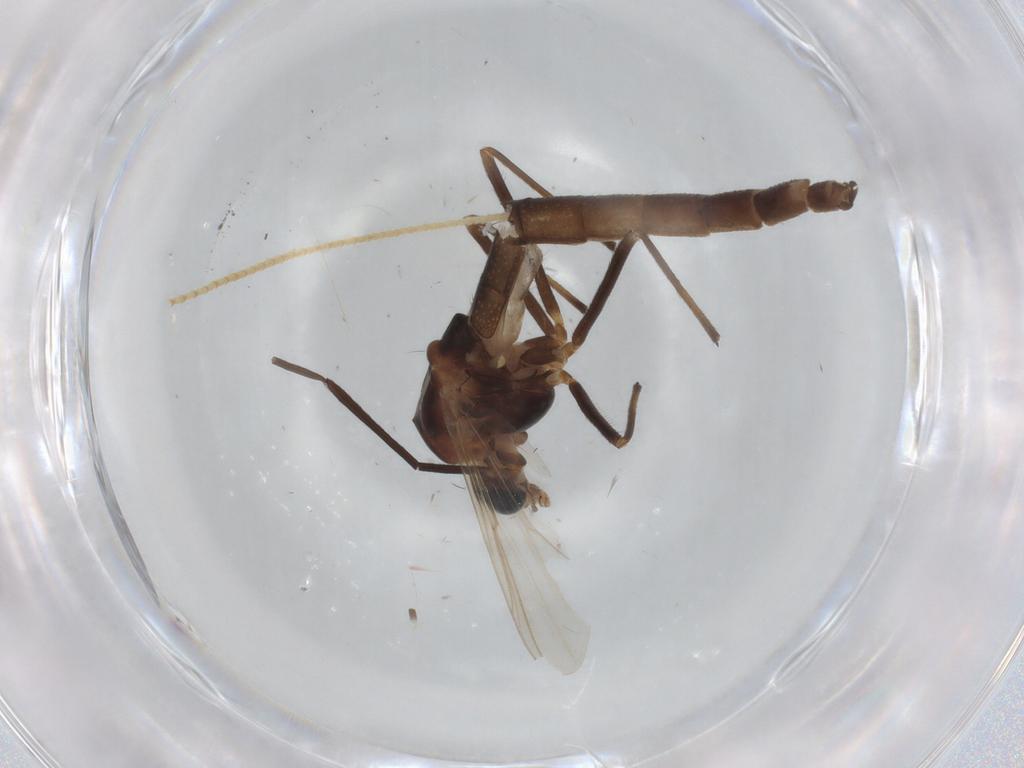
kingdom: Animalia
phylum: Arthropoda
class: Insecta
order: Diptera
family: Chironomidae
